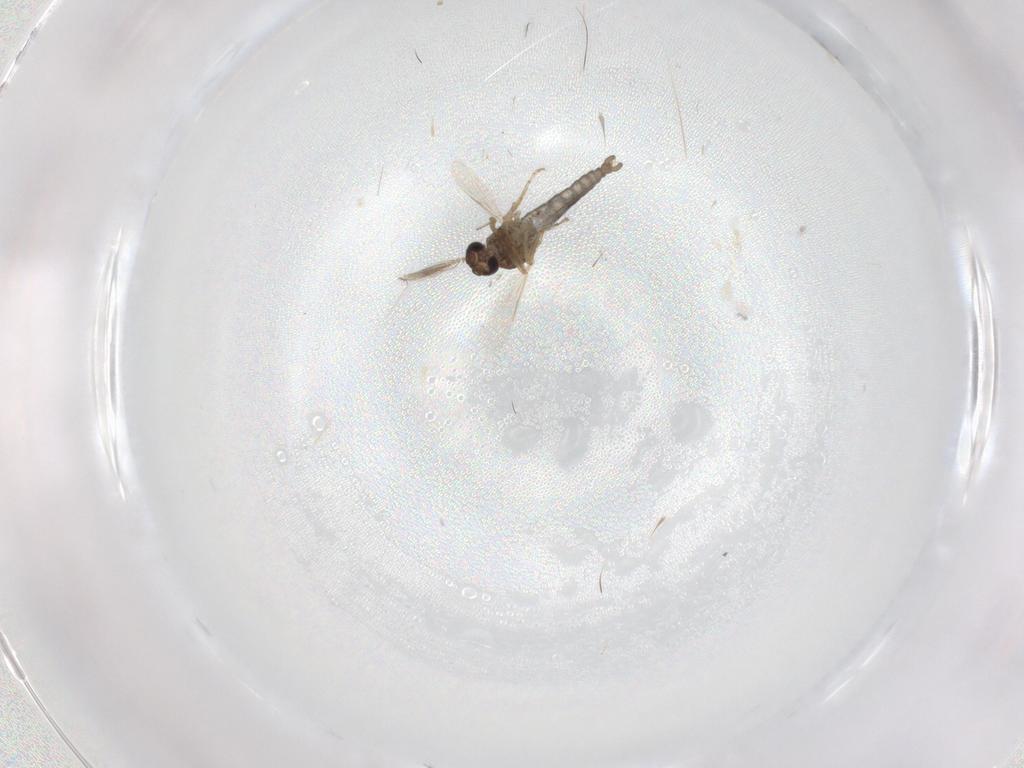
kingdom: Animalia
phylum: Arthropoda
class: Insecta
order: Diptera
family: Ceratopogonidae
